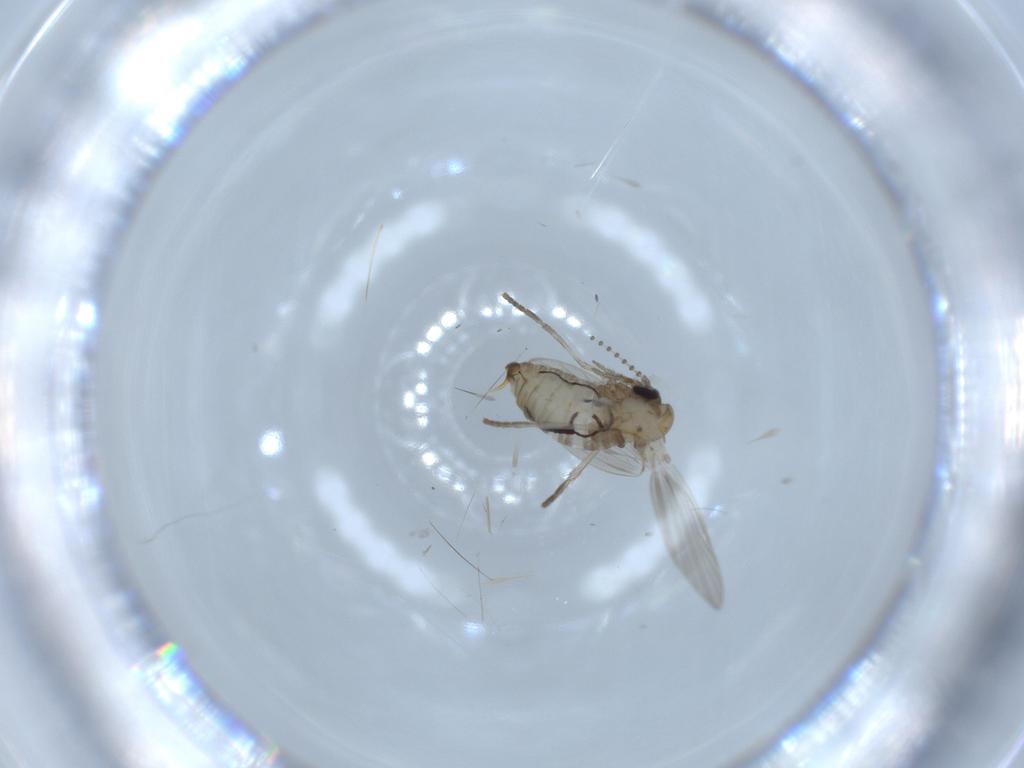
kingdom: Animalia
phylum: Arthropoda
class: Insecta
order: Diptera
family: Psychodidae
